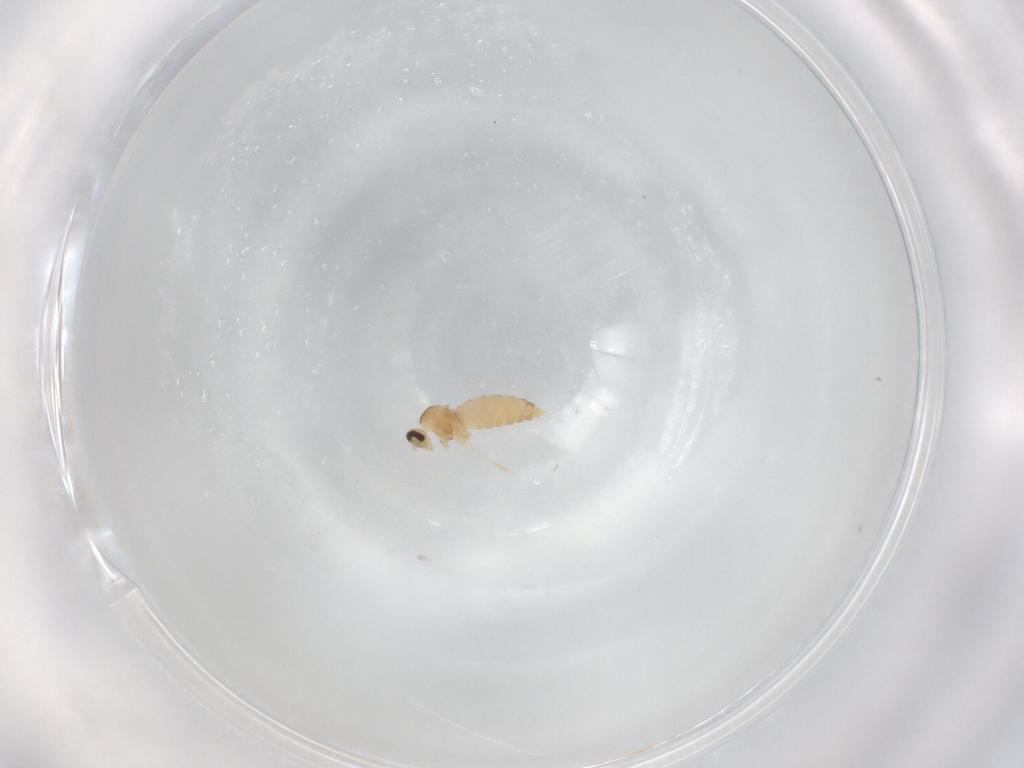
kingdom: Animalia
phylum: Arthropoda
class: Insecta
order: Diptera
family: Cecidomyiidae
